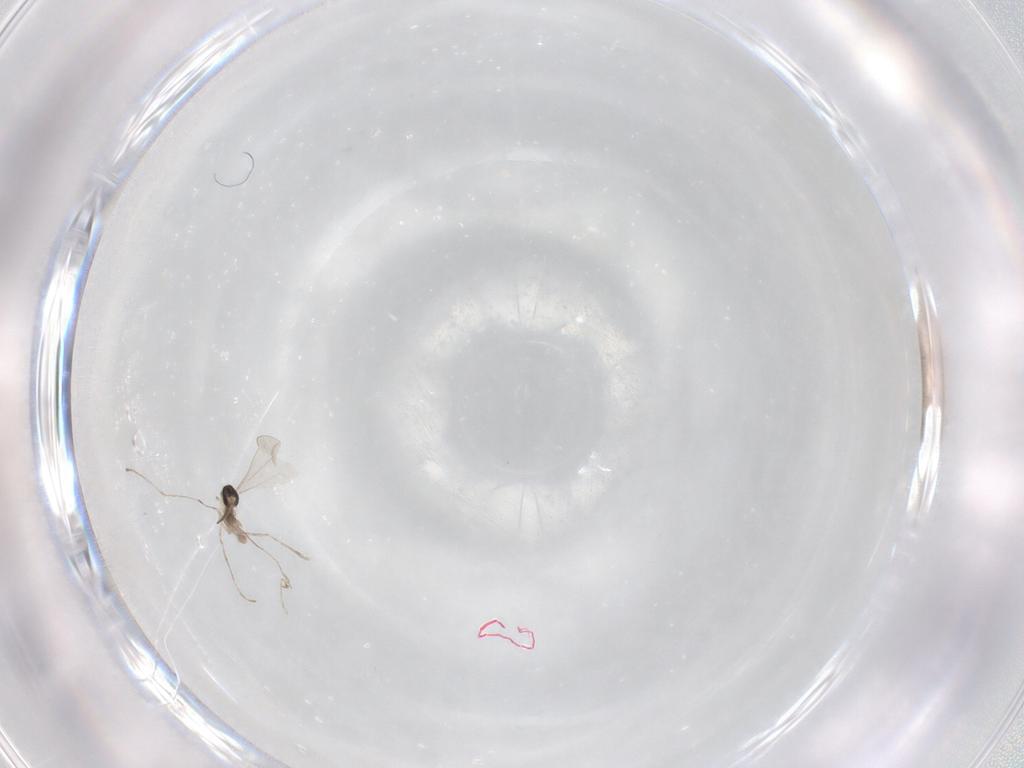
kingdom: Animalia
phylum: Arthropoda
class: Insecta
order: Diptera
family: Cecidomyiidae
